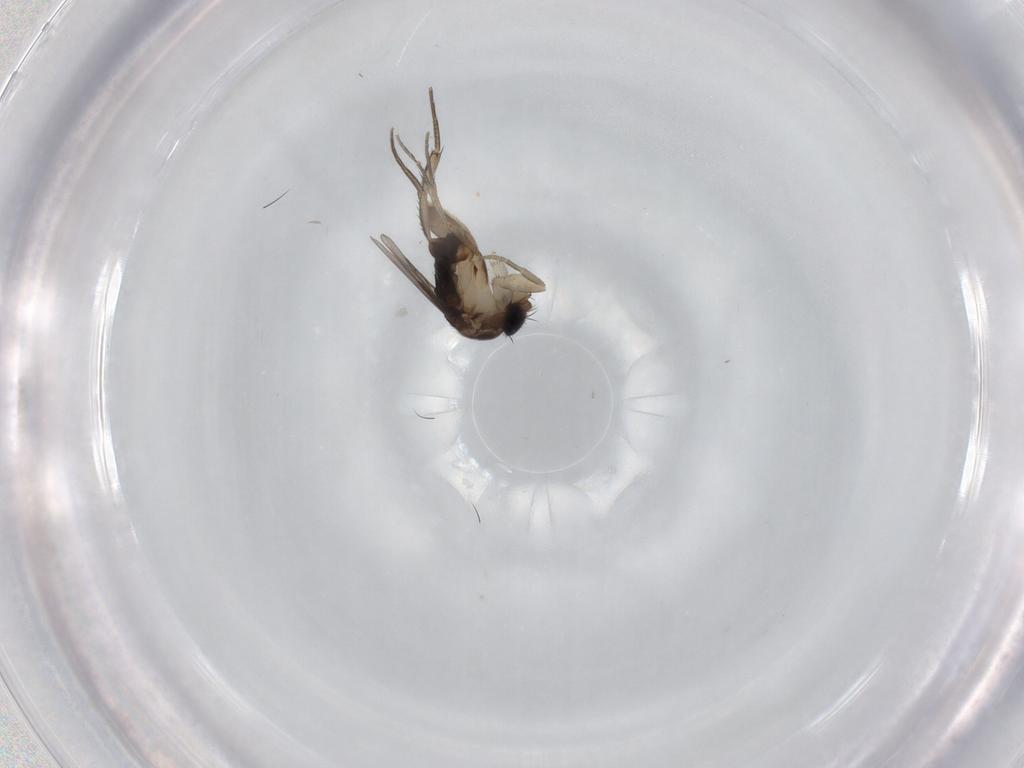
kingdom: Animalia
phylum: Arthropoda
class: Insecta
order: Diptera
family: Phoridae
